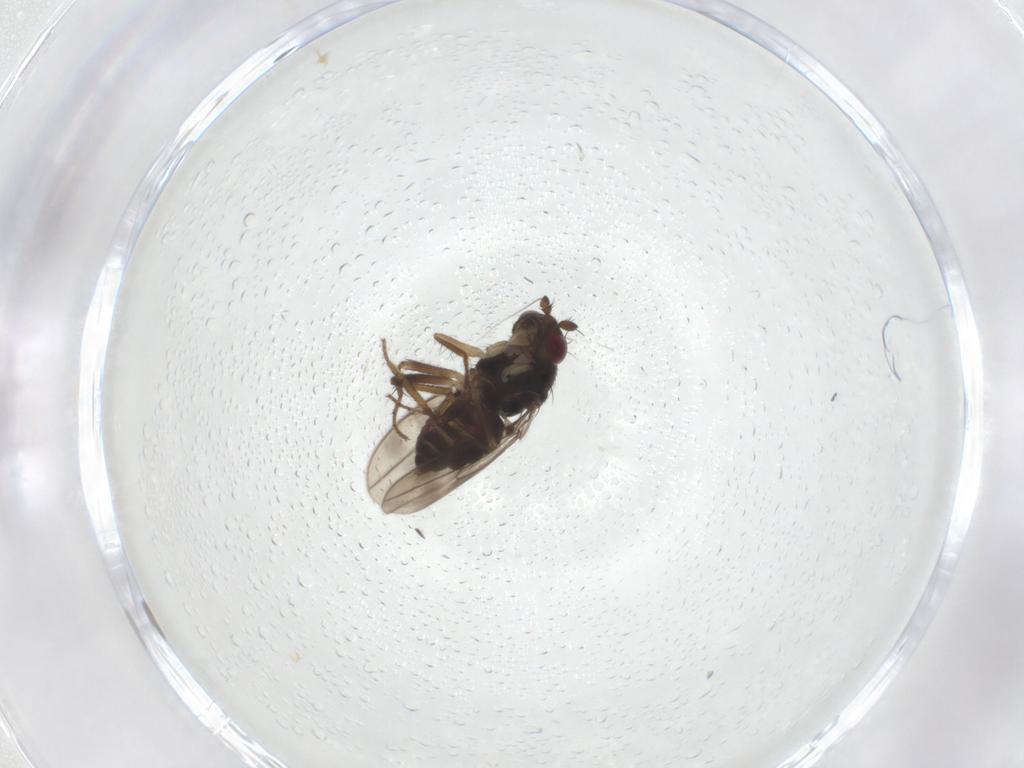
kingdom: Animalia
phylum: Arthropoda
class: Insecta
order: Diptera
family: Sphaeroceridae
